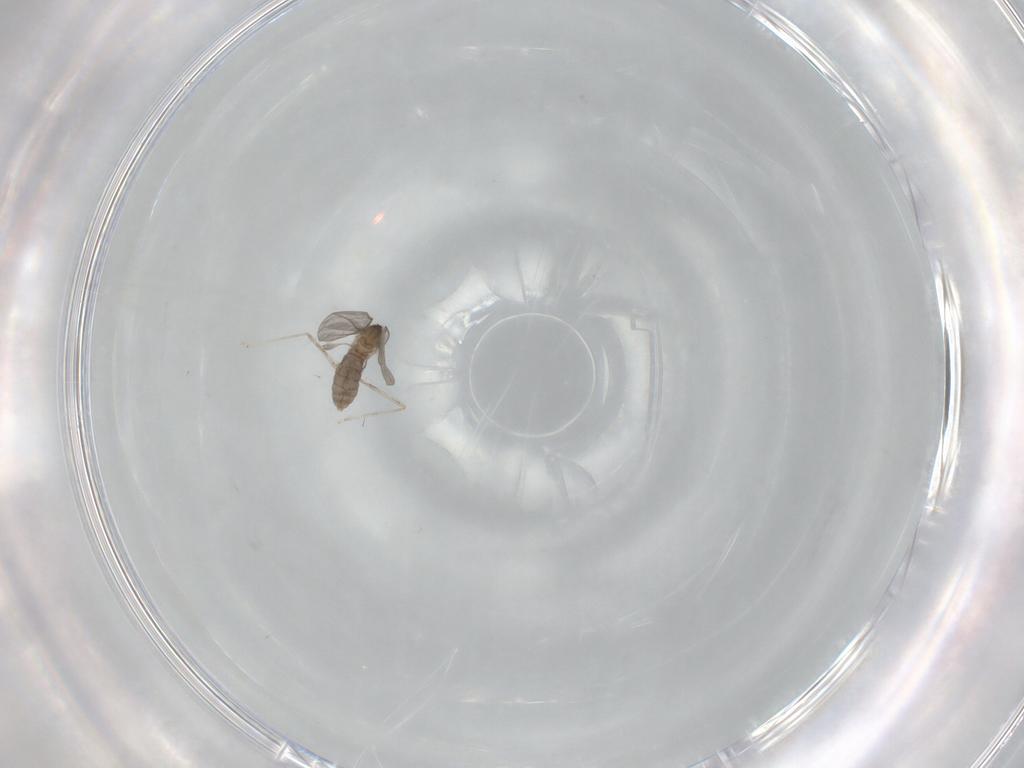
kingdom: Animalia
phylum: Arthropoda
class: Insecta
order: Diptera
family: Cecidomyiidae
